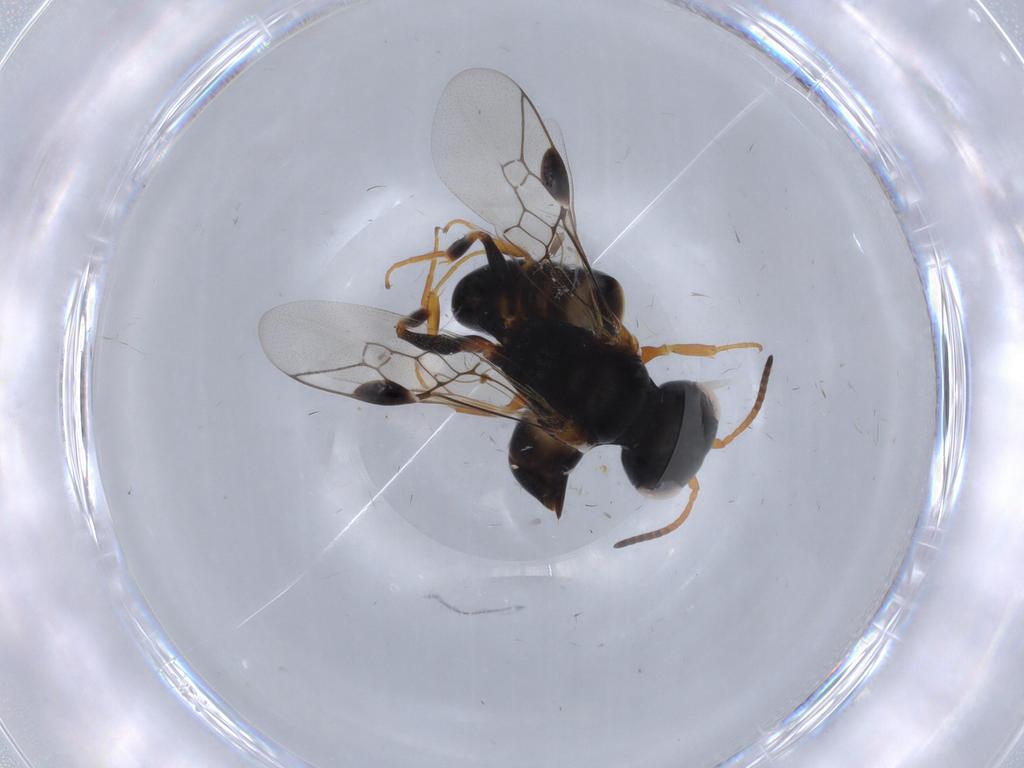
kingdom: Animalia
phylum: Arthropoda
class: Insecta
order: Hymenoptera
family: Pemphredonidae
